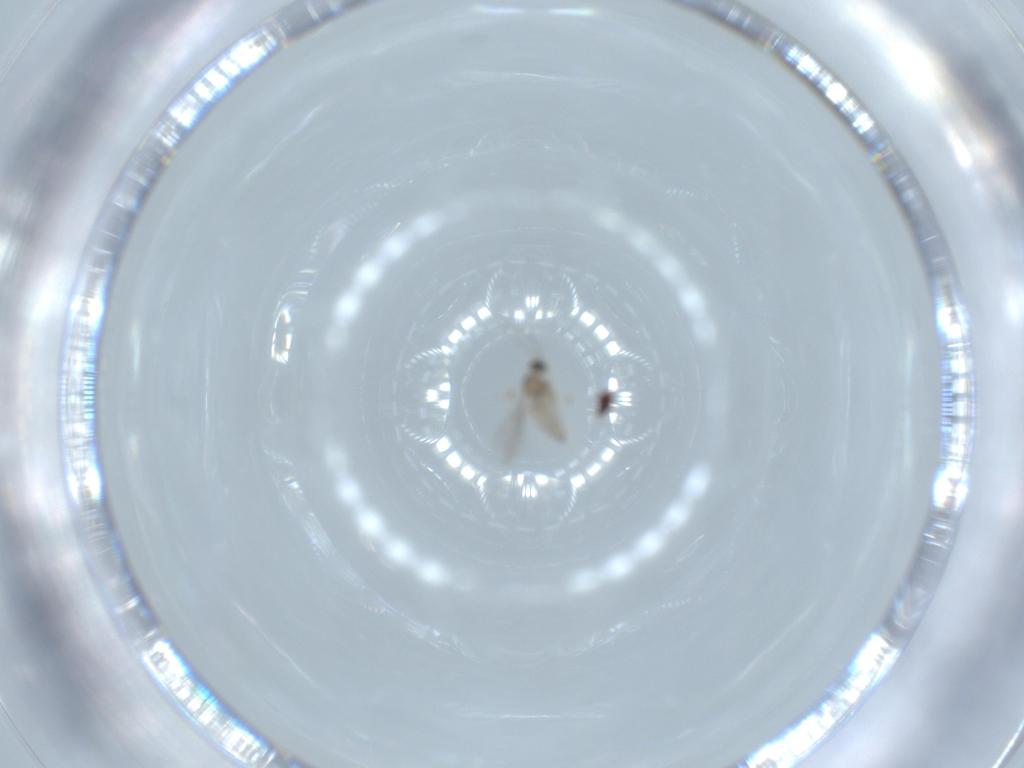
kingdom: Animalia
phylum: Arthropoda
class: Insecta
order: Diptera
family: Cecidomyiidae
